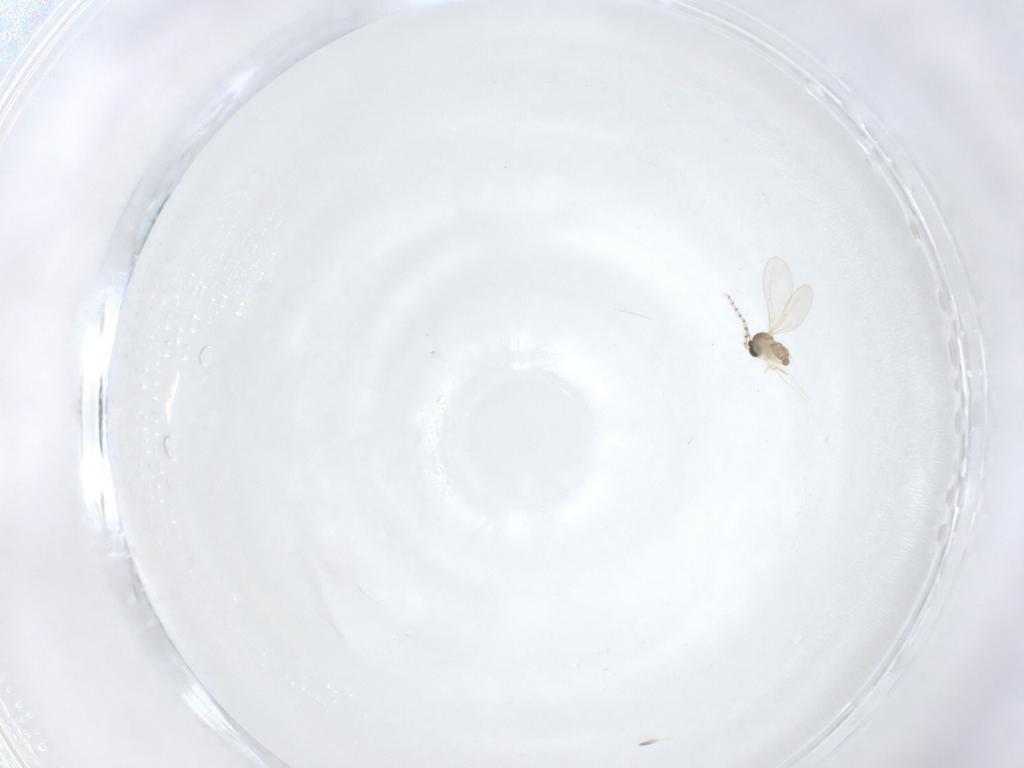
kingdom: Animalia
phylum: Arthropoda
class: Insecta
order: Diptera
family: Cecidomyiidae
